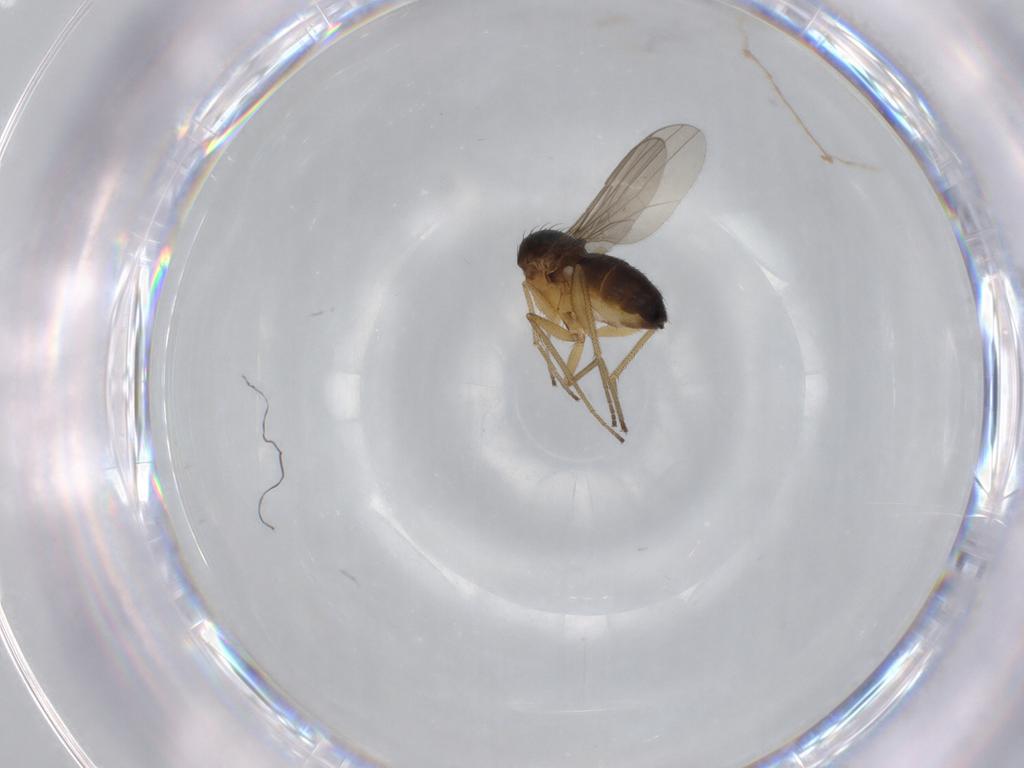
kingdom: Animalia
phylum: Arthropoda
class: Insecta
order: Diptera
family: Dolichopodidae
